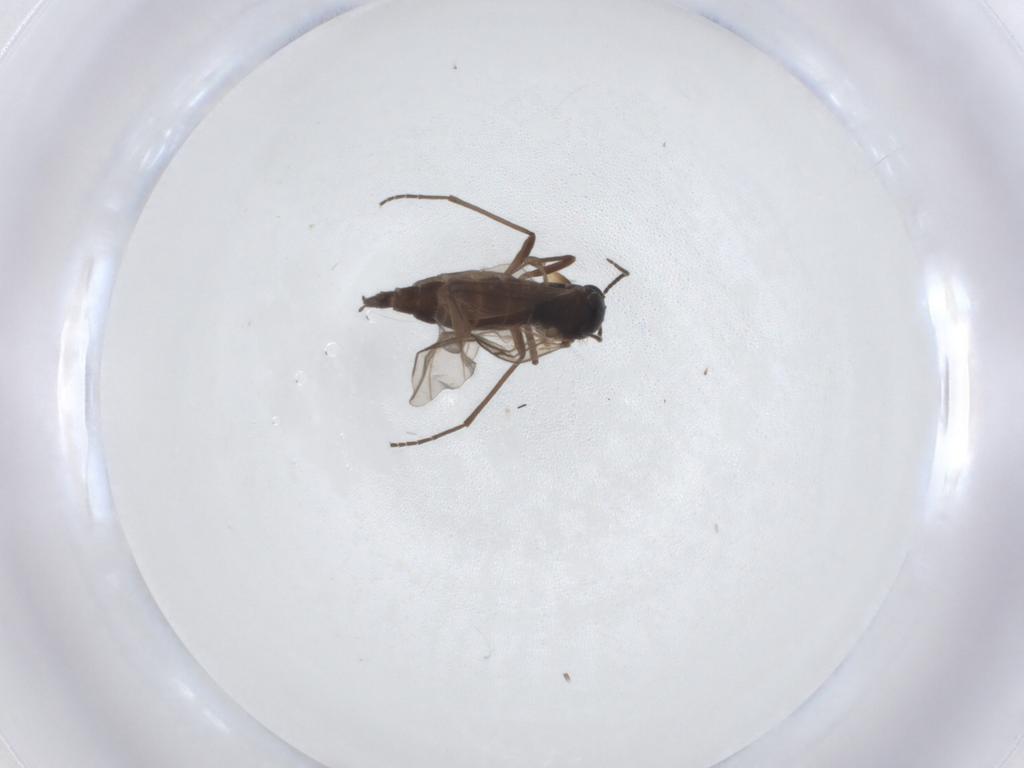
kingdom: Animalia
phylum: Arthropoda
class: Insecta
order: Diptera
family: Sciaridae
